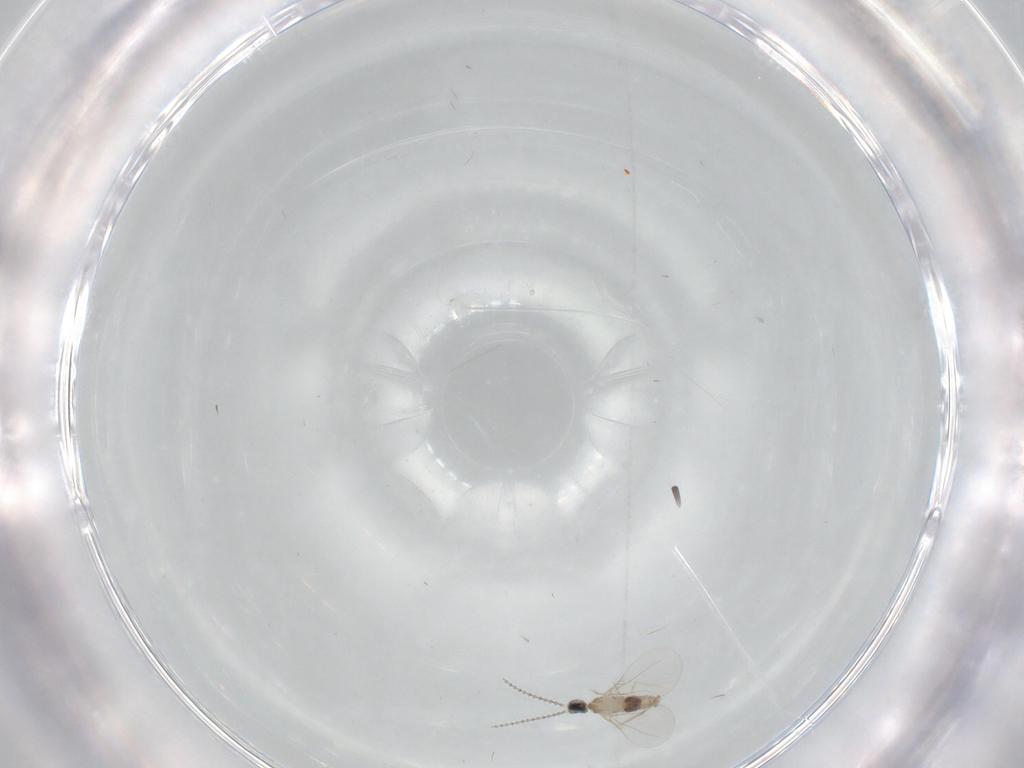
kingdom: Animalia
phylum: Arthropoda
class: Insecta
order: Diptera
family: Cecidomyiidae
